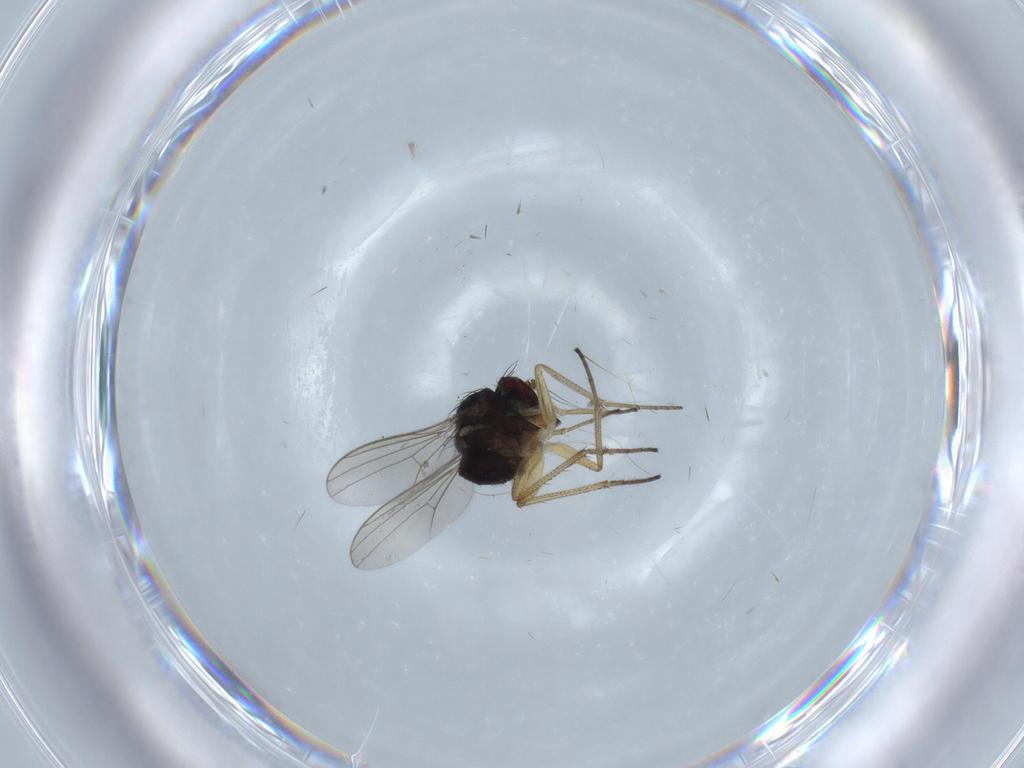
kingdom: Animalia
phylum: Arthropoda
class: Insecta
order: Diptera
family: Dolichopodidae
